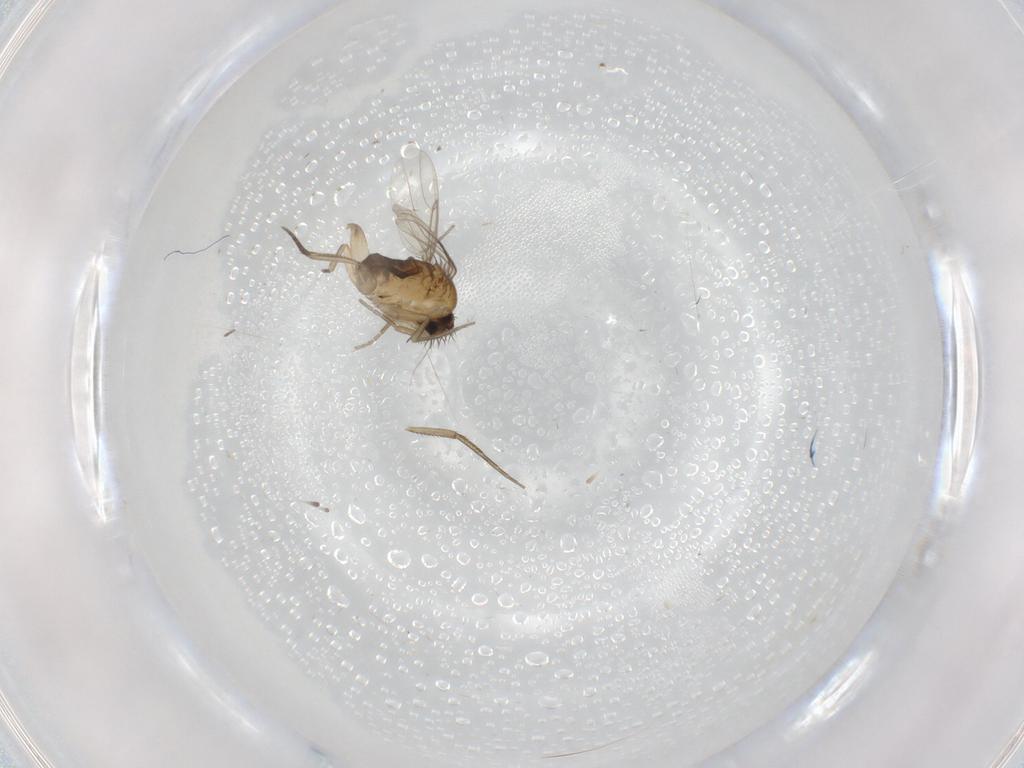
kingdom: Animalia
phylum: Arthropoda
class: Insecta
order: Diptera
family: Phoridae
